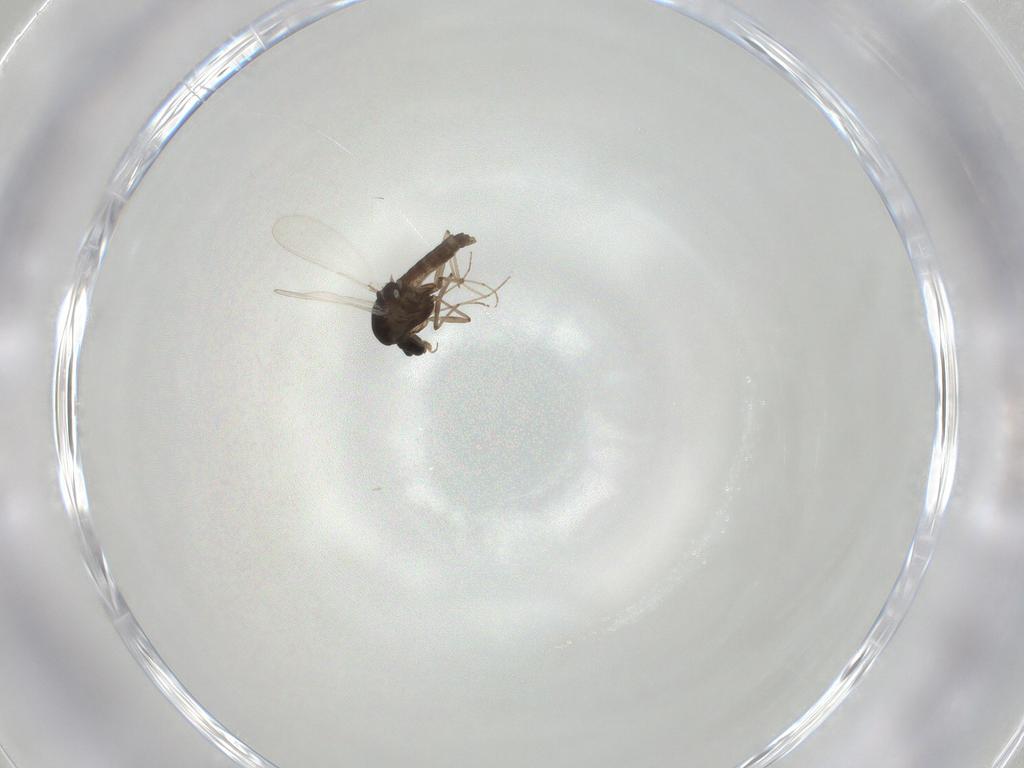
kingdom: Animalia
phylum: Arthropoda
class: Insecta
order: Diptera
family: Chironomidae
